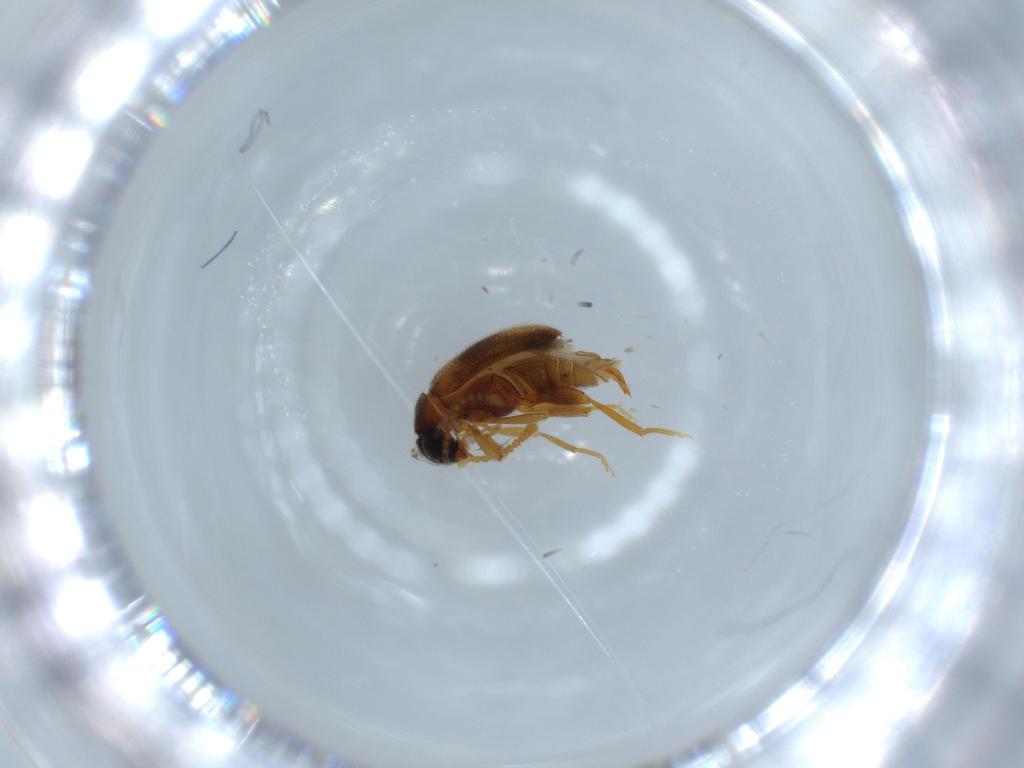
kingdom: Animalia
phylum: Arthropoda
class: Insecta
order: Coleoptera
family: Aderidae
